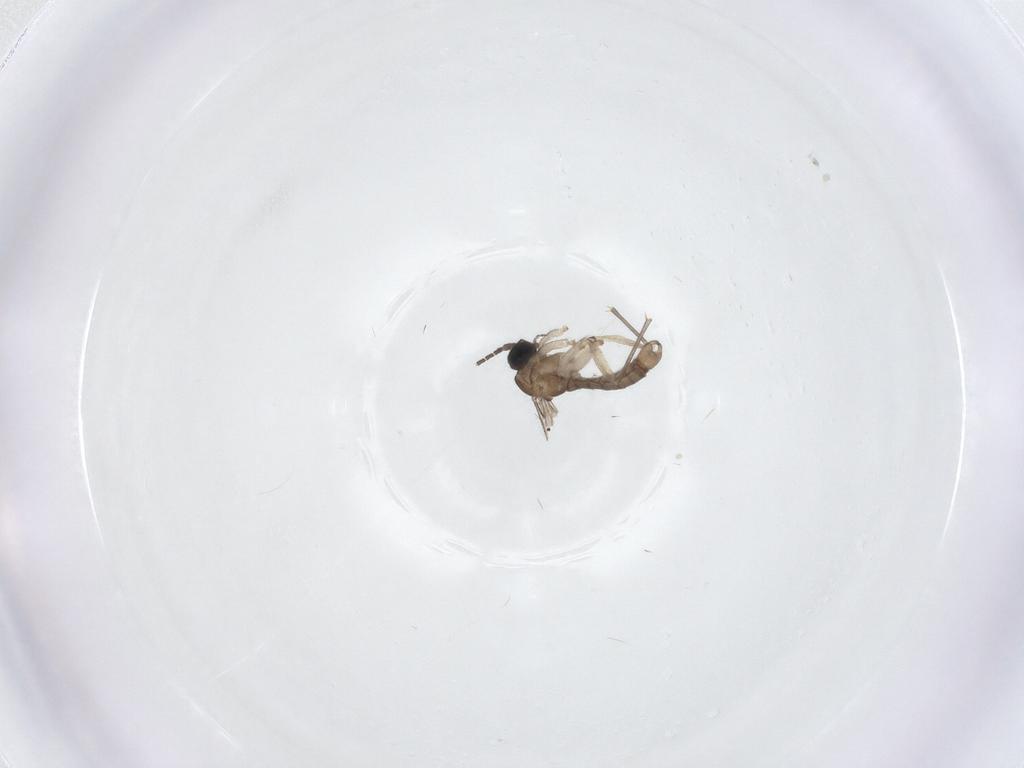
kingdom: Animalia
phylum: Arthropoda
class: Insecta
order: Diptera
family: Sciaridae
